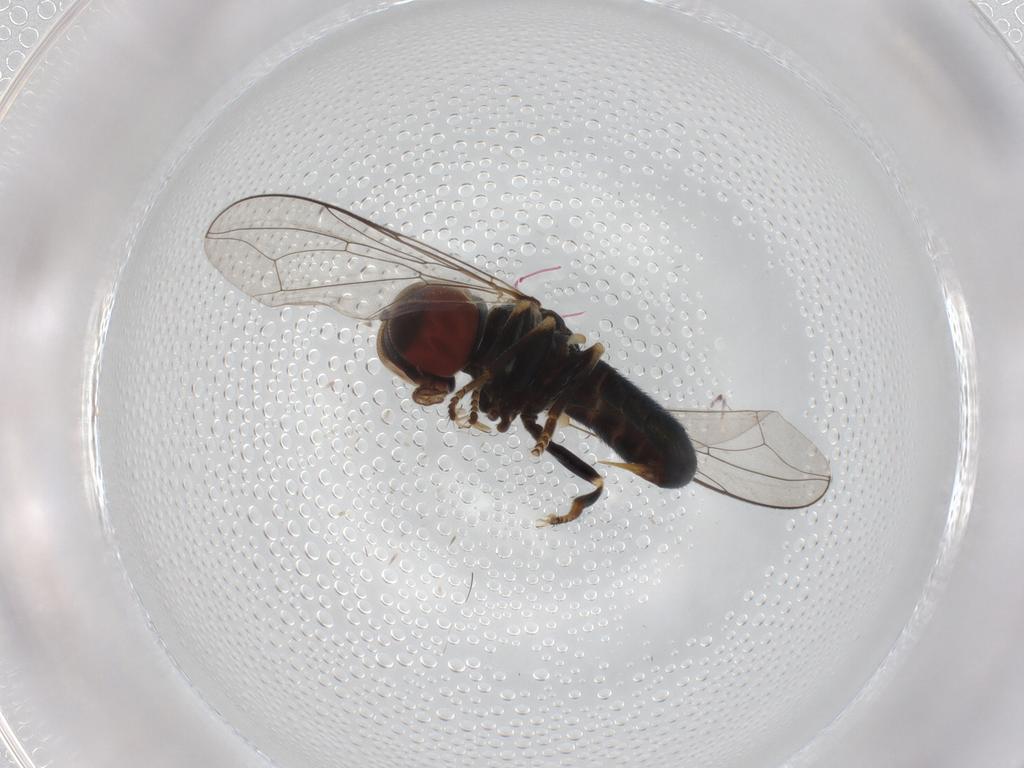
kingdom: Animalia
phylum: Arthropoda
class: Insecta
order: Diptera
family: Pipunculidae
